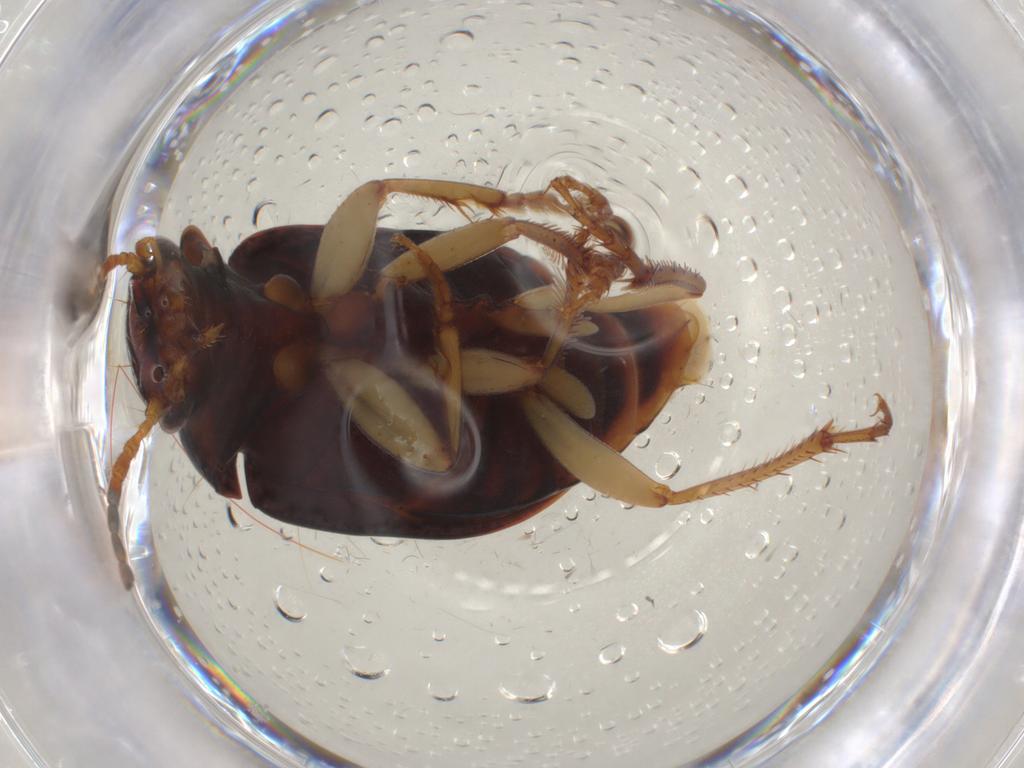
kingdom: Animalia
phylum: Arthropoda
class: Insecta
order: Coleoptera
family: Carabidae
